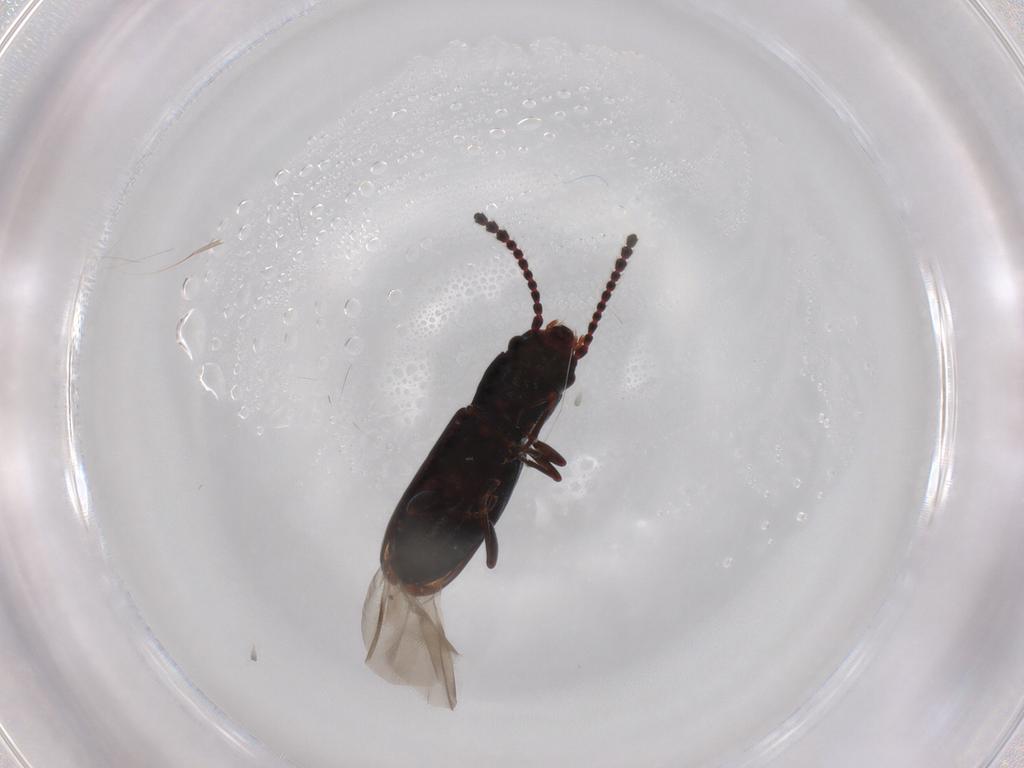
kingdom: Animalia
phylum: Arthropoda
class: Insecta
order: Coleoptera
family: Laemophloeidae
